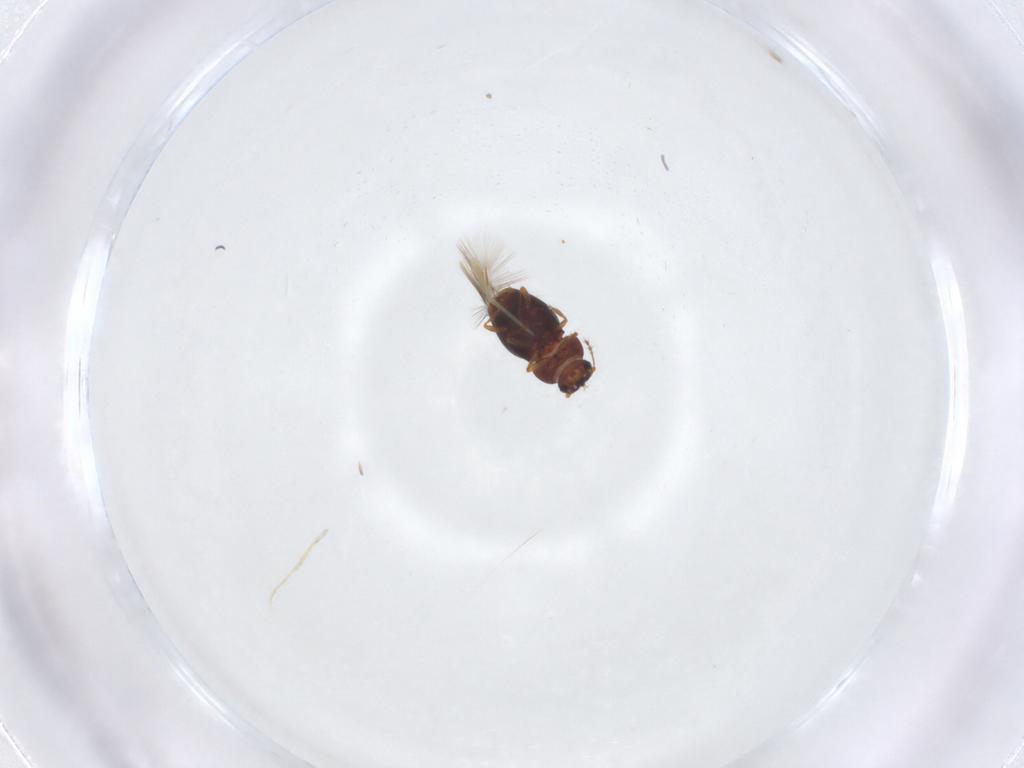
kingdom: Animalia
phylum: Arthropoda
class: Insecta
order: Coleoptera
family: Ptiliidae
